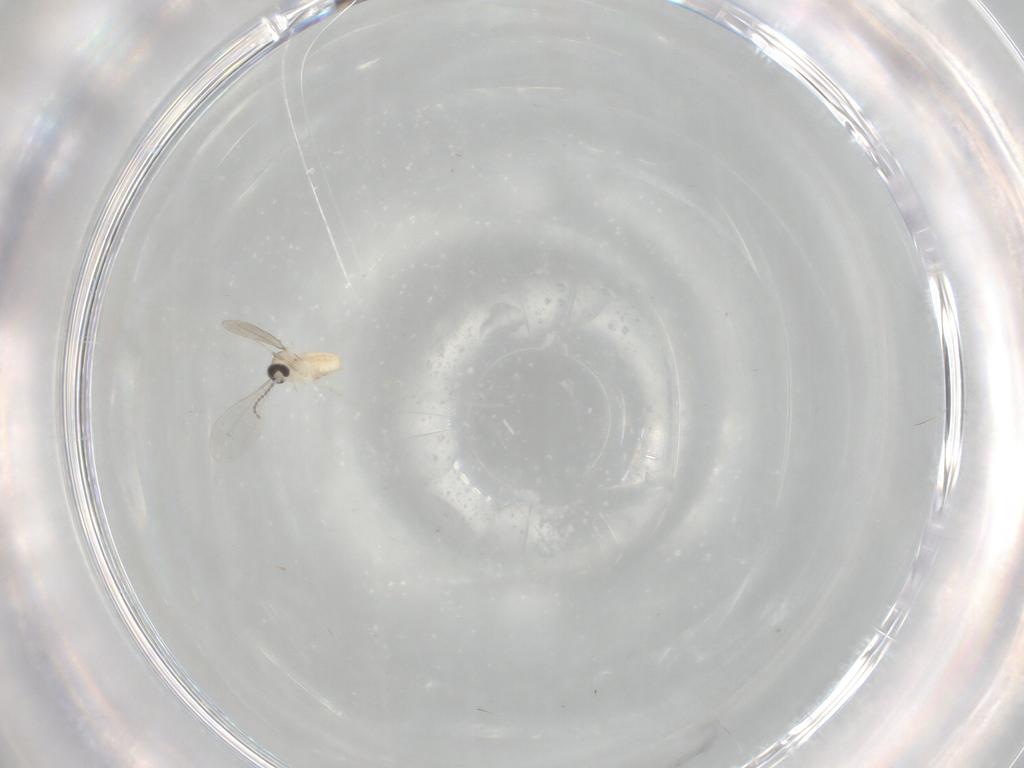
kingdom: Animalia
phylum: Arthropoda
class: Insecta
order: Diptera
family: Cecidomyiidae
